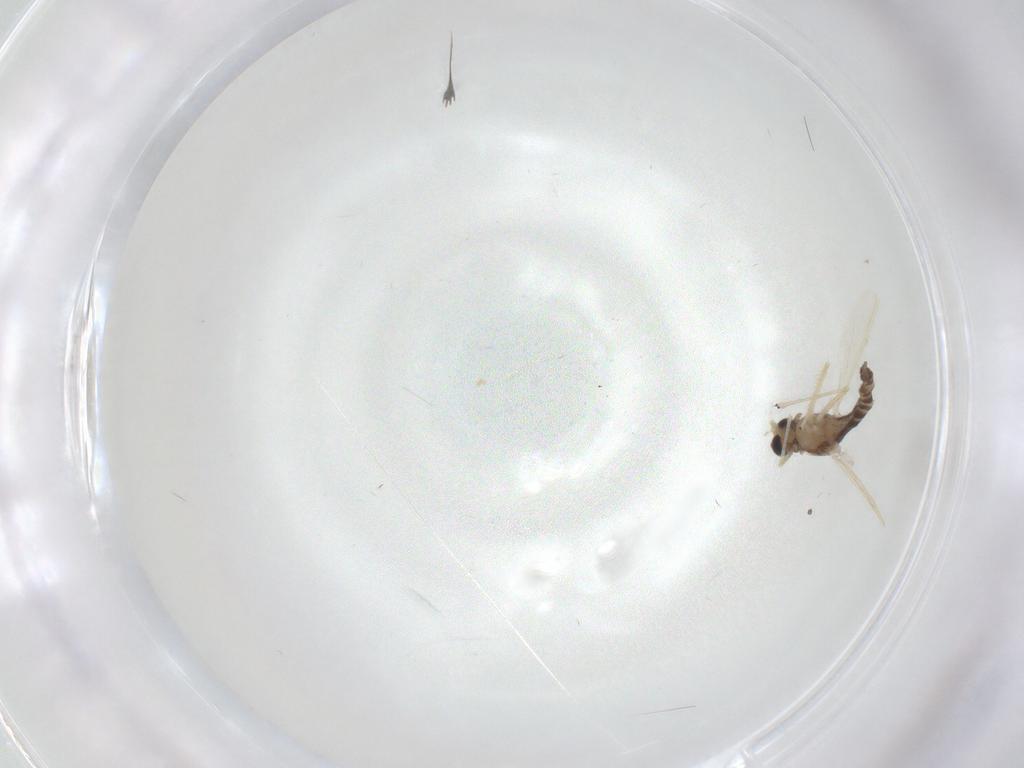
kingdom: Animalia
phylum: Arthropoda
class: Insecta
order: Diptera
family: Chironomidae
